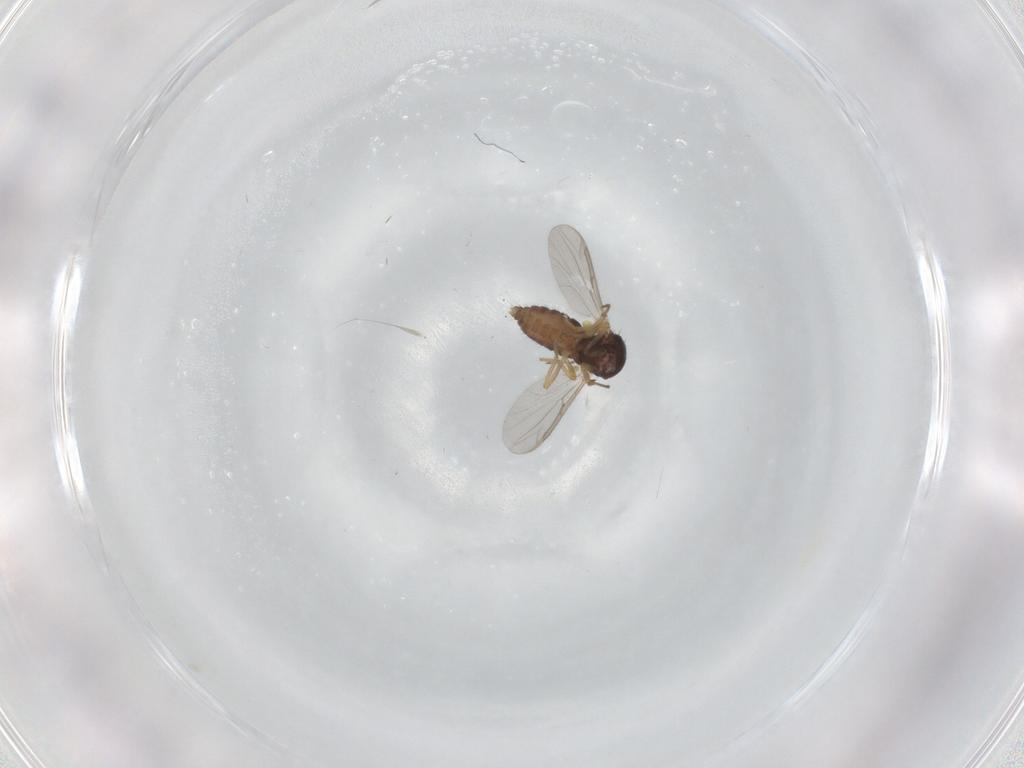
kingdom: Animalia
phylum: Arthropoda
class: Insecta
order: Diptera
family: Ceratopogonidae
